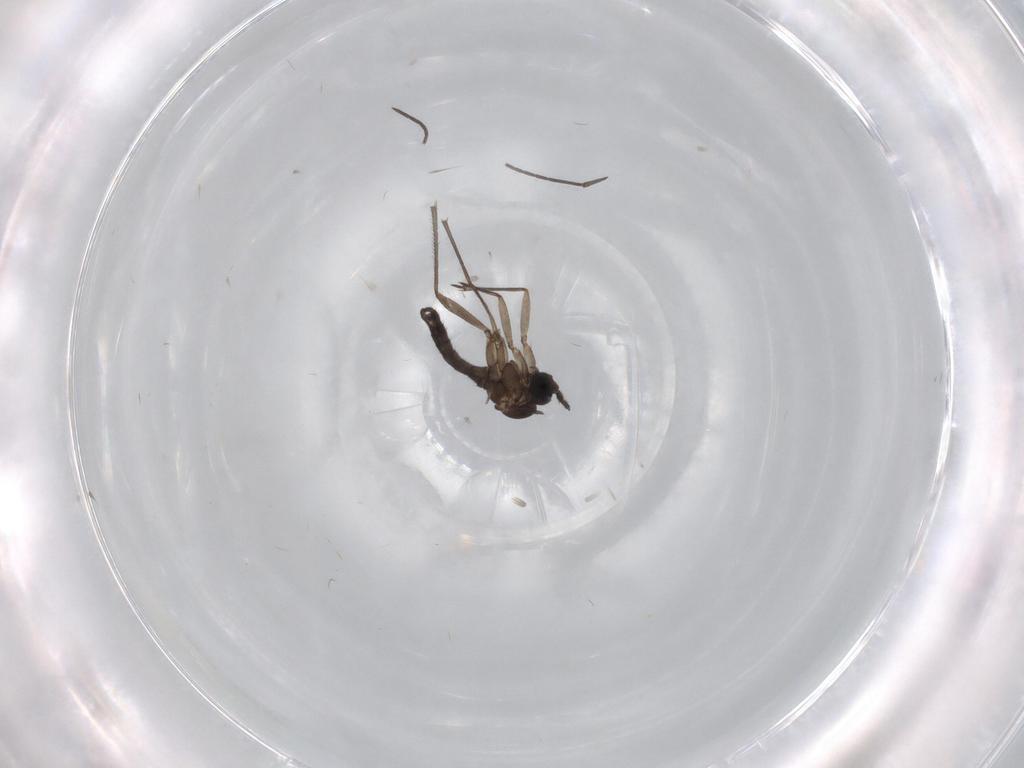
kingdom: Animalia
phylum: Arthropoda
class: Insecta
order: Diptera
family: Sciaridae
